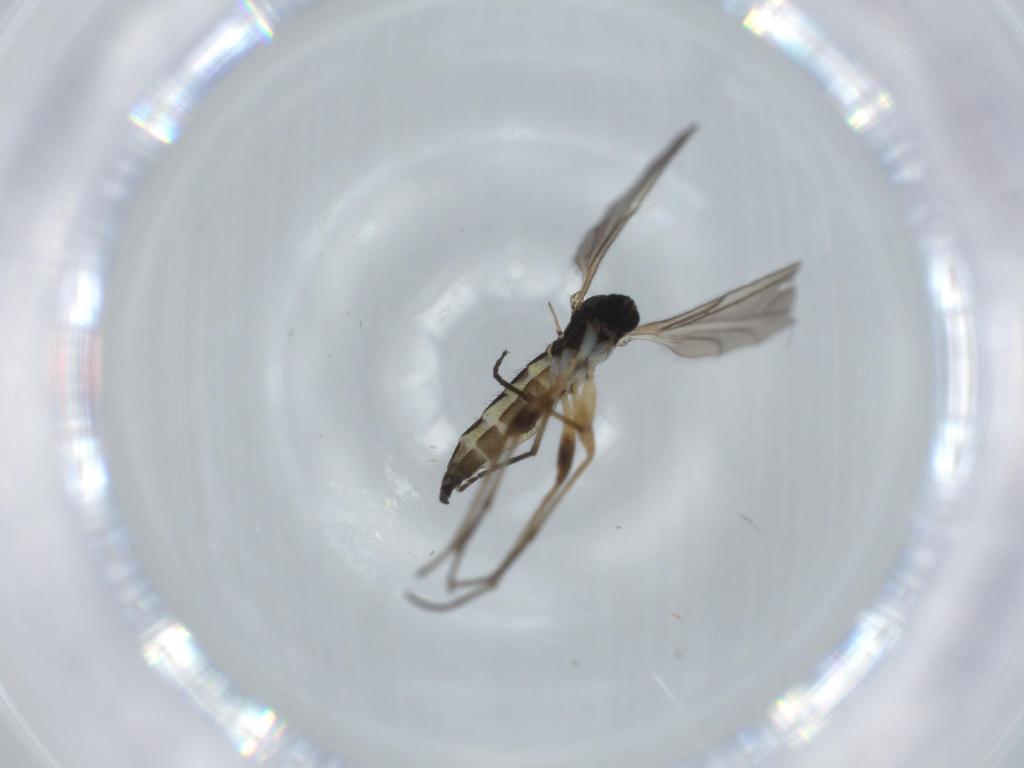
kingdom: Animalia
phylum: Arthropoda
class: Insecta
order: Diptera
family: Sciaridae
